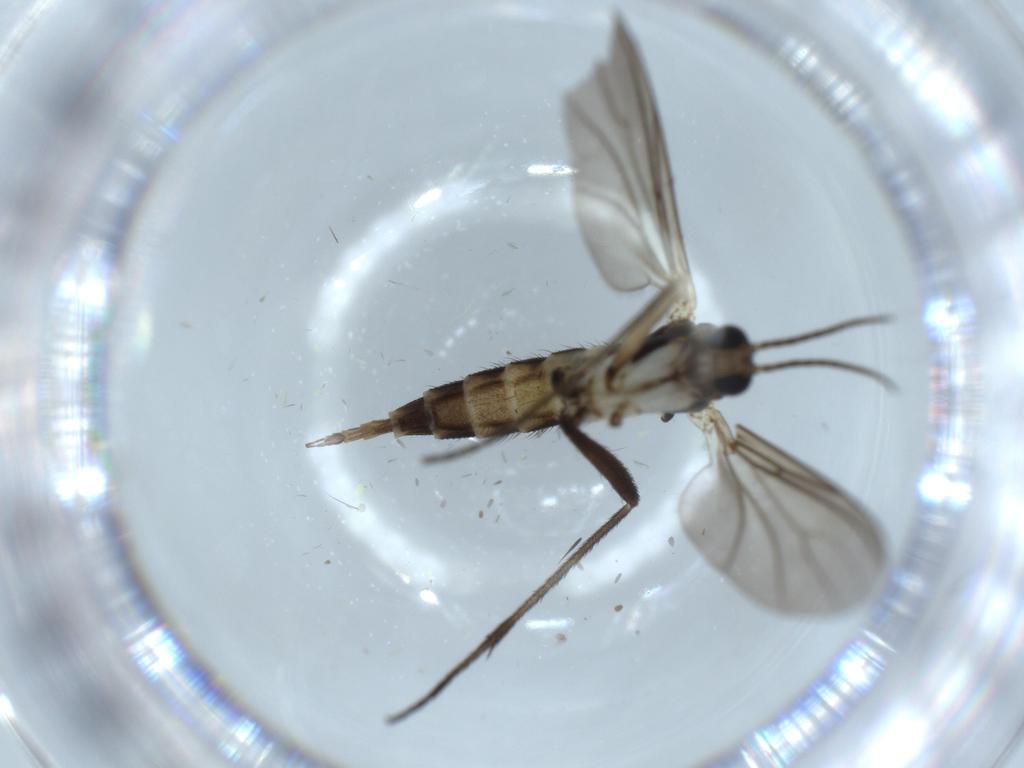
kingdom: Animalia
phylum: Arthropoda
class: Insecta
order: Diptera
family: Sciaridae
